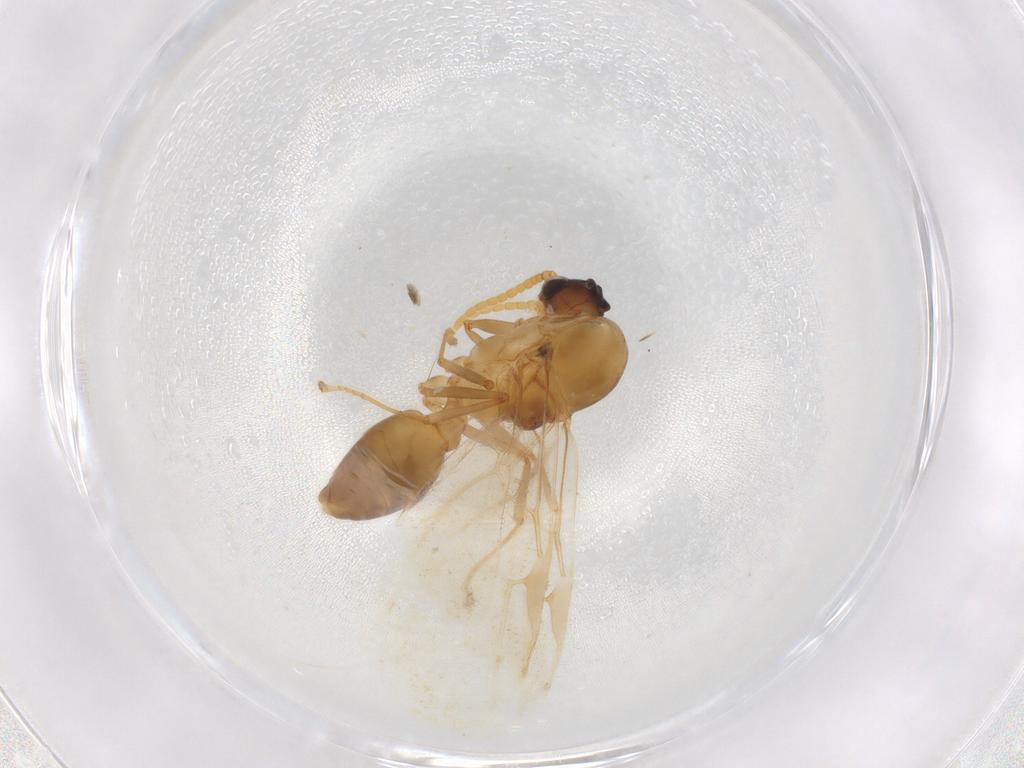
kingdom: Animalia
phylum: Arthropoda
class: Insecta
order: Hymenoptera
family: Formicidae
